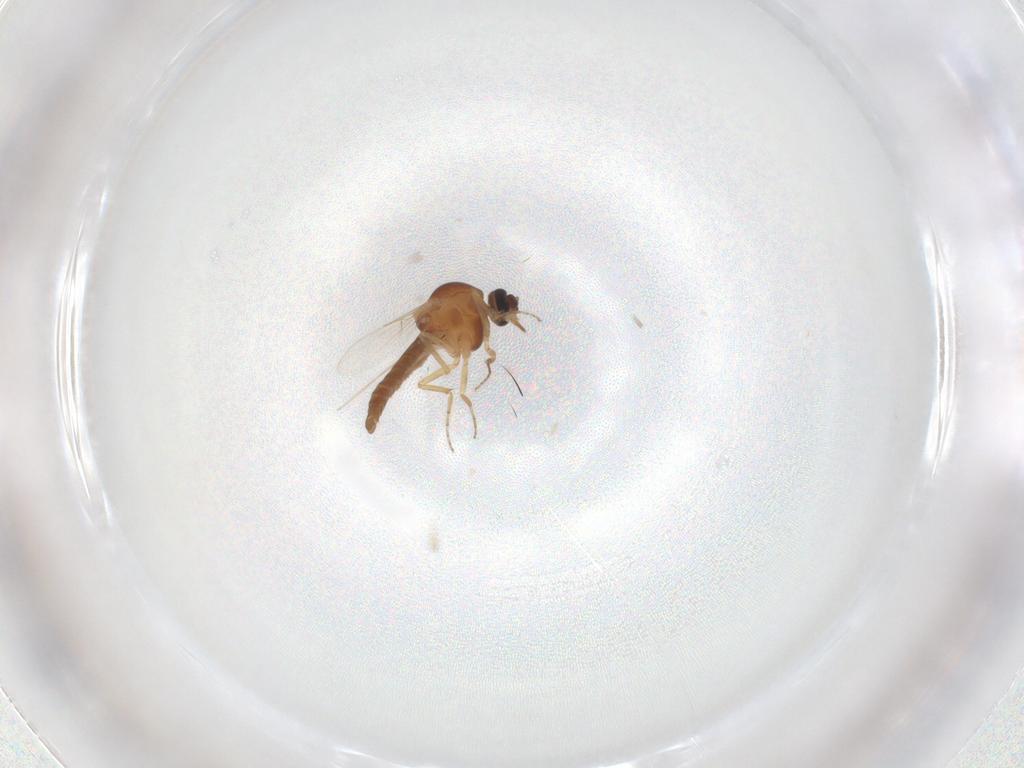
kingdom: Animalia
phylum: Arthropoda
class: Insecta
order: Diptera
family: Ceratopogonidae
